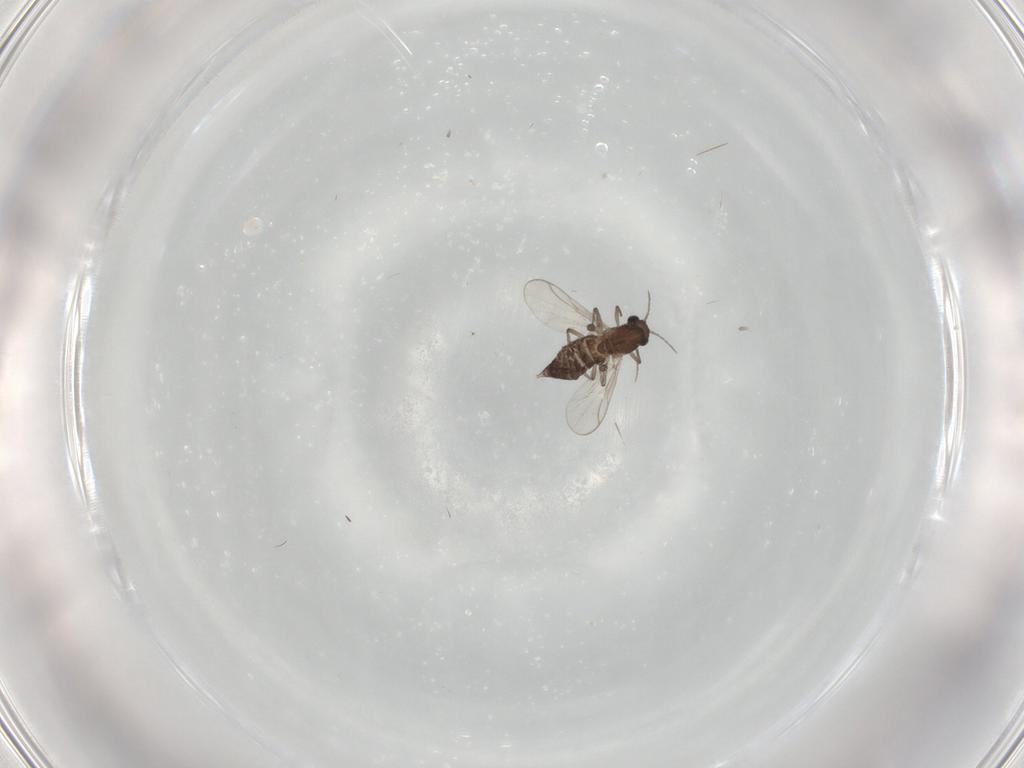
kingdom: Animalia
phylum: Arthropoda
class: Insecta
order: Diptera
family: Chironomidae
